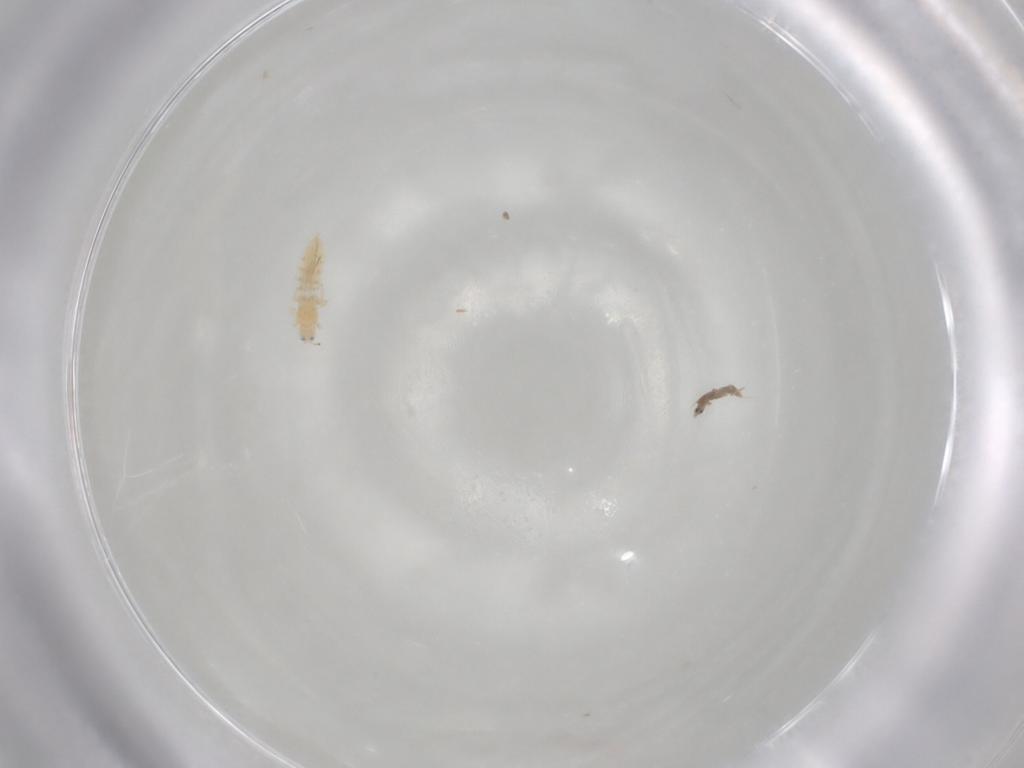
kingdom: Animalia
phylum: Arthropoda
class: Insecta
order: Hemiptera
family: Coccoidea_incertae_sedis
